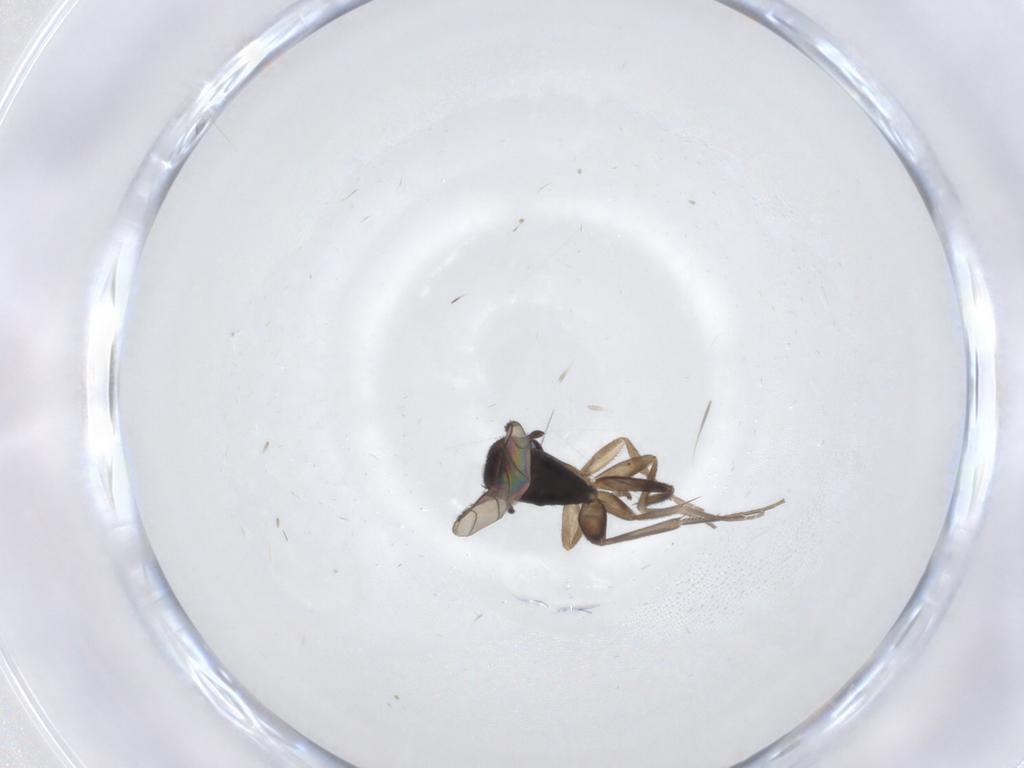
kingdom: Animalia
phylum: Arthropoda
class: Insecta
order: Diptera
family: Phoridae
